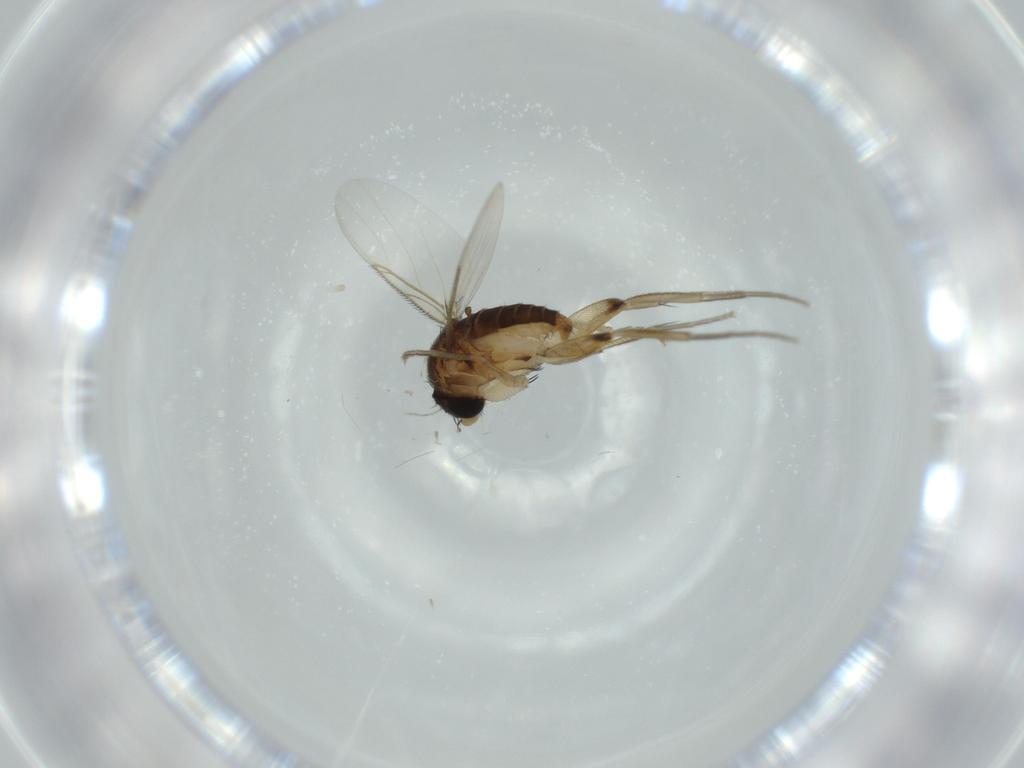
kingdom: Animalia
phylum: Arthropoda
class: Insecta
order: Diptera
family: Phoridae
